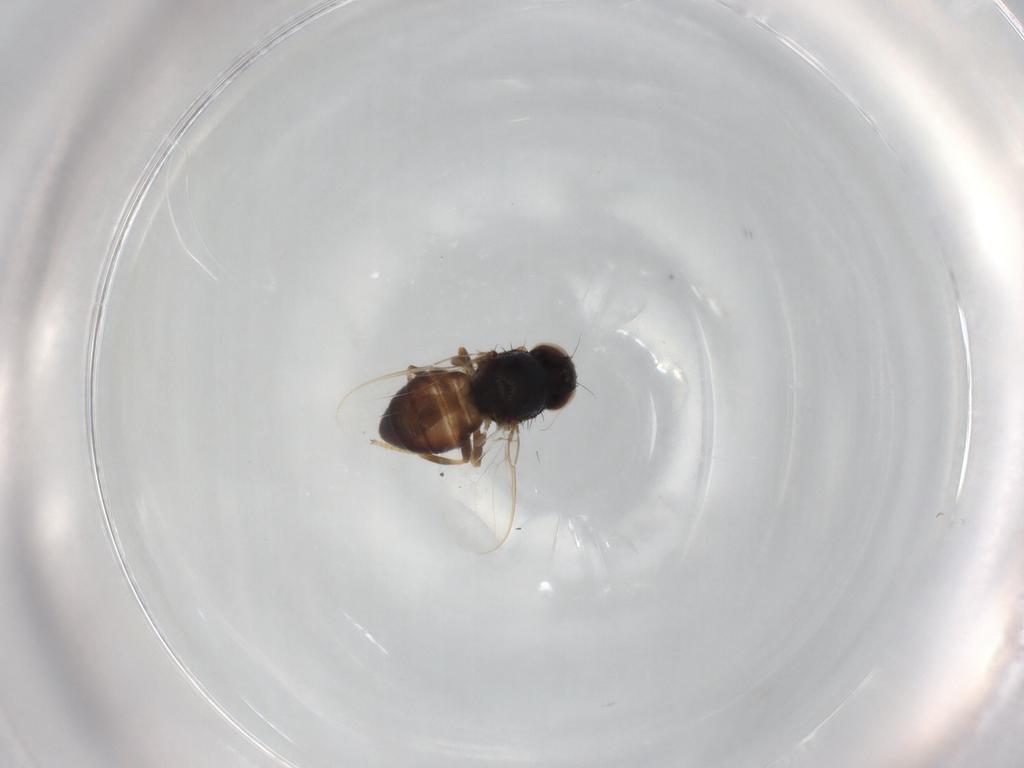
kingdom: Animalia
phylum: Arthropoda
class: Insecta
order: Diptera
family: Chloropidae
